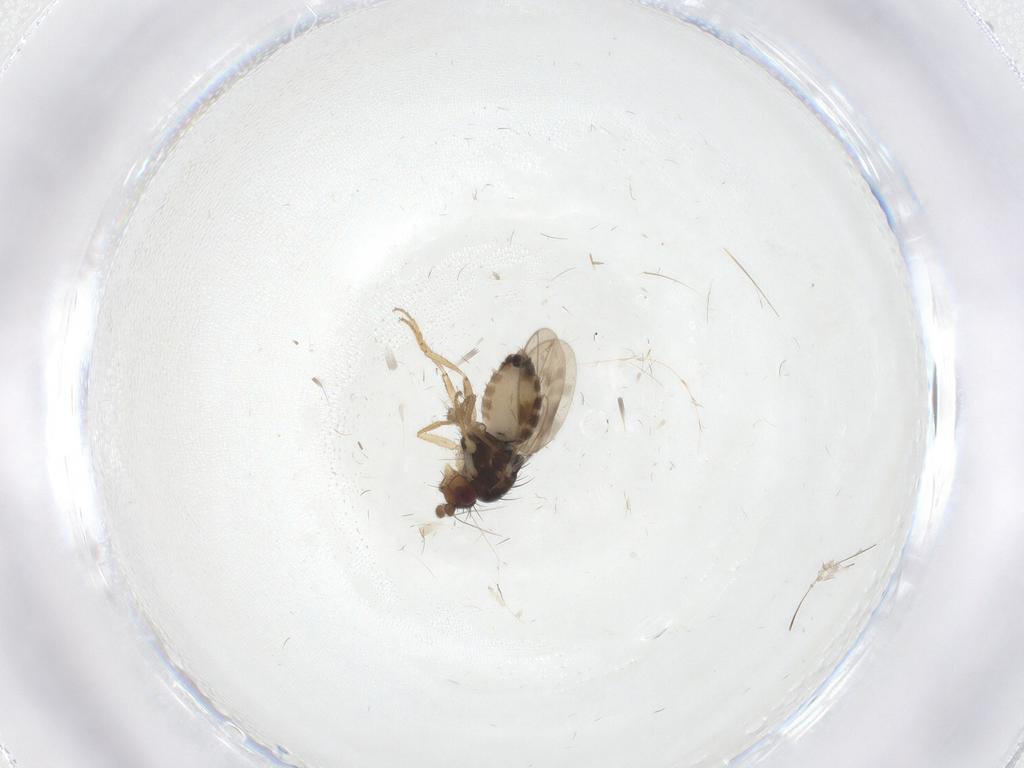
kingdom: Animalia
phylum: Arthropoda
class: Insecta
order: Diptera
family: Sphaeroceridae
